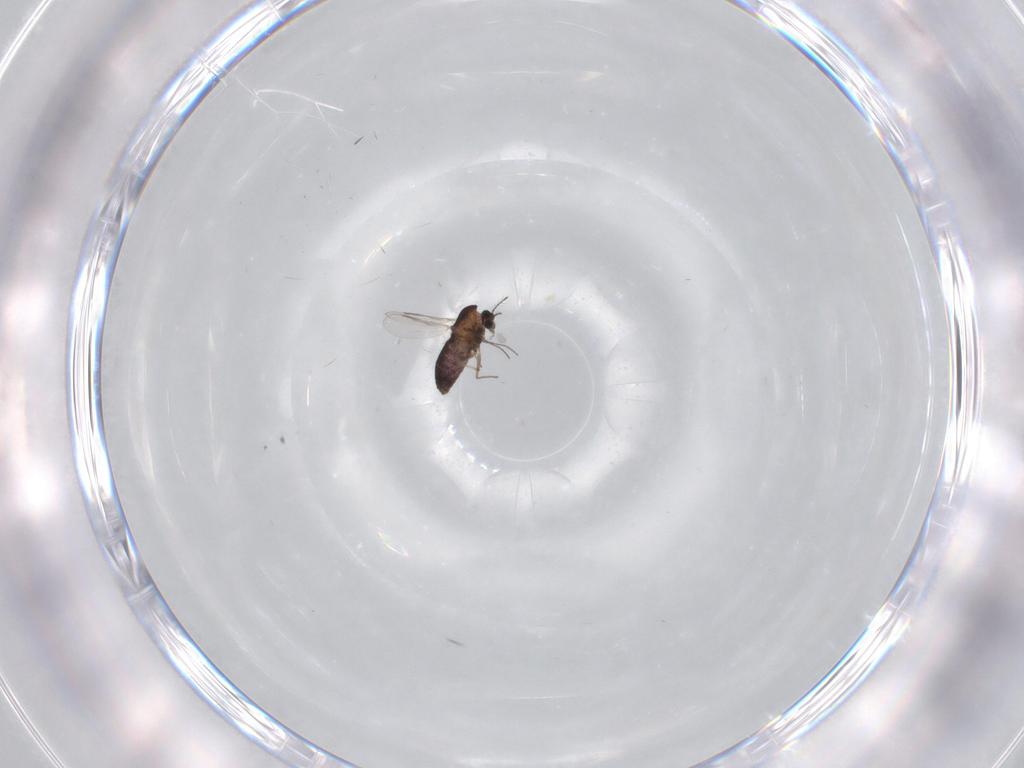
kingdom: Animalia
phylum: Arthropoda
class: Insecta
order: Diptera
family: Chironomidae
